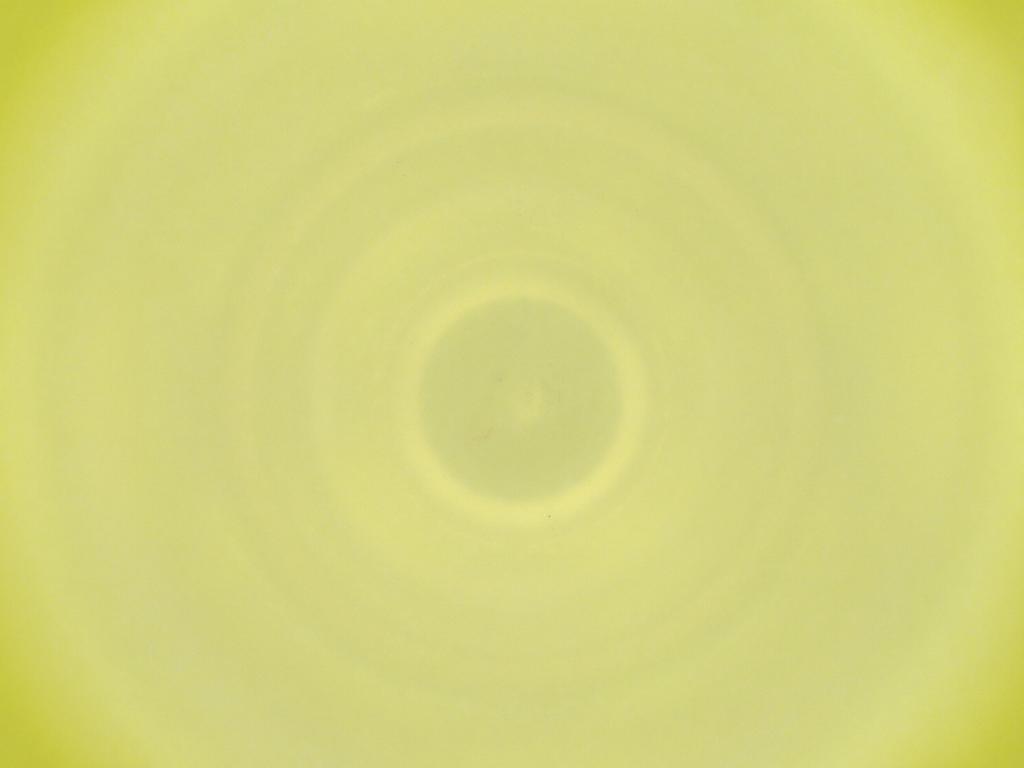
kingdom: Animalia
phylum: Arthropoda
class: Insecta
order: Diptera
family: Cecidomyiidae
